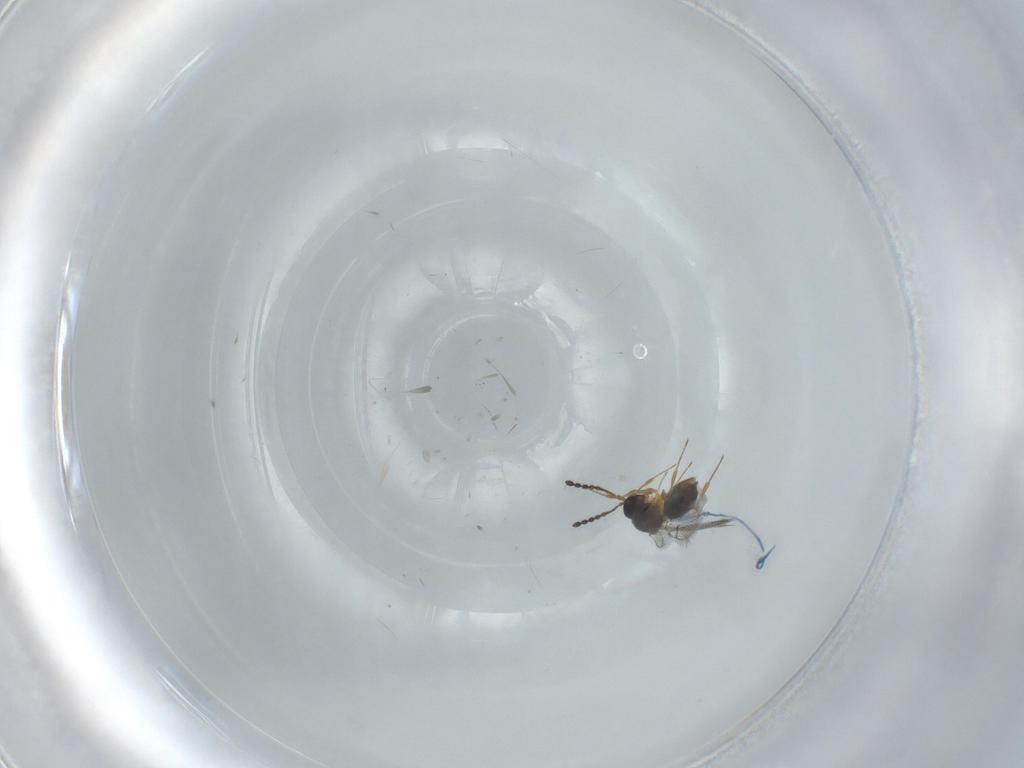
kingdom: Animalia
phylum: Arthropoda
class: Insecta
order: Hymenoptera
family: Figitidae
